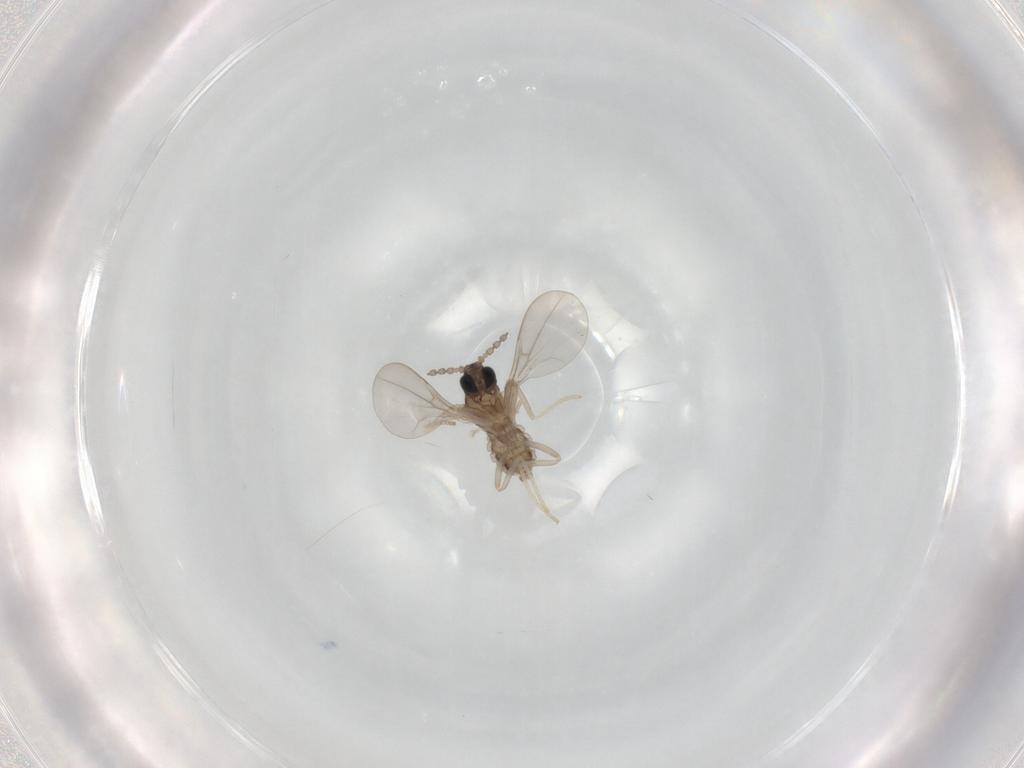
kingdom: Animalia
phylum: Arthropoda
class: Insecta
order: Diptera
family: Cecidomyiidae
